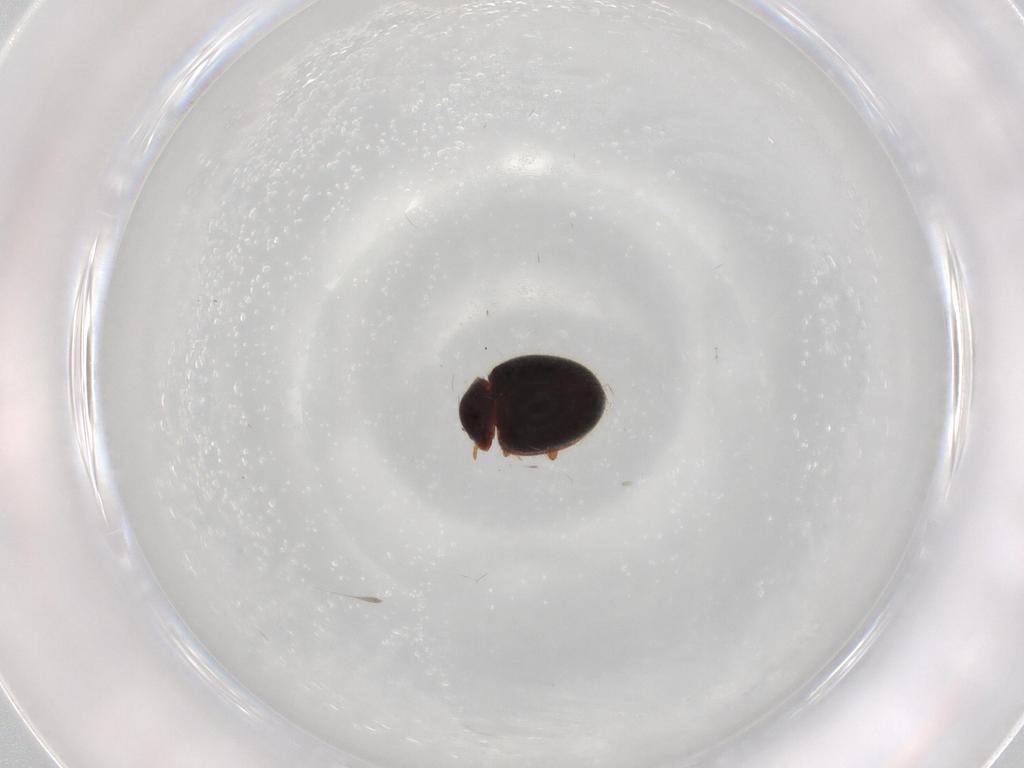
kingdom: Animalia
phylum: Arthropoda
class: Insecta
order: Coleoptera
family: Coccinellidae
